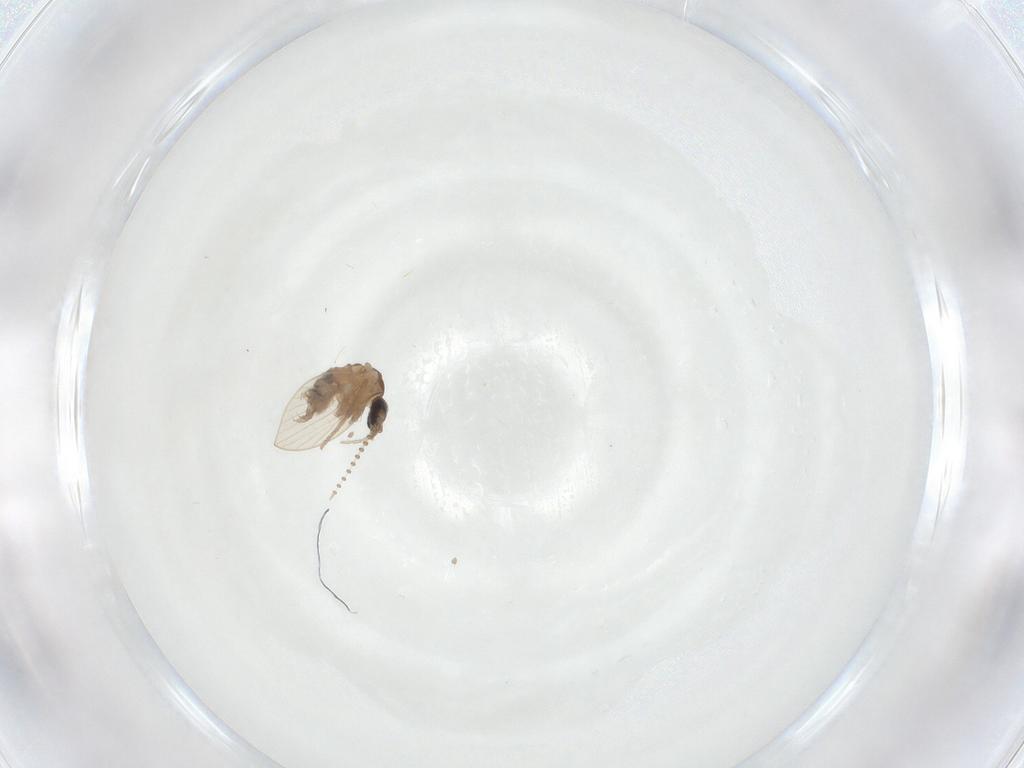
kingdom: Animalia
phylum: Arthropoda
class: Insecta
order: Diptera
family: Psychodidae
